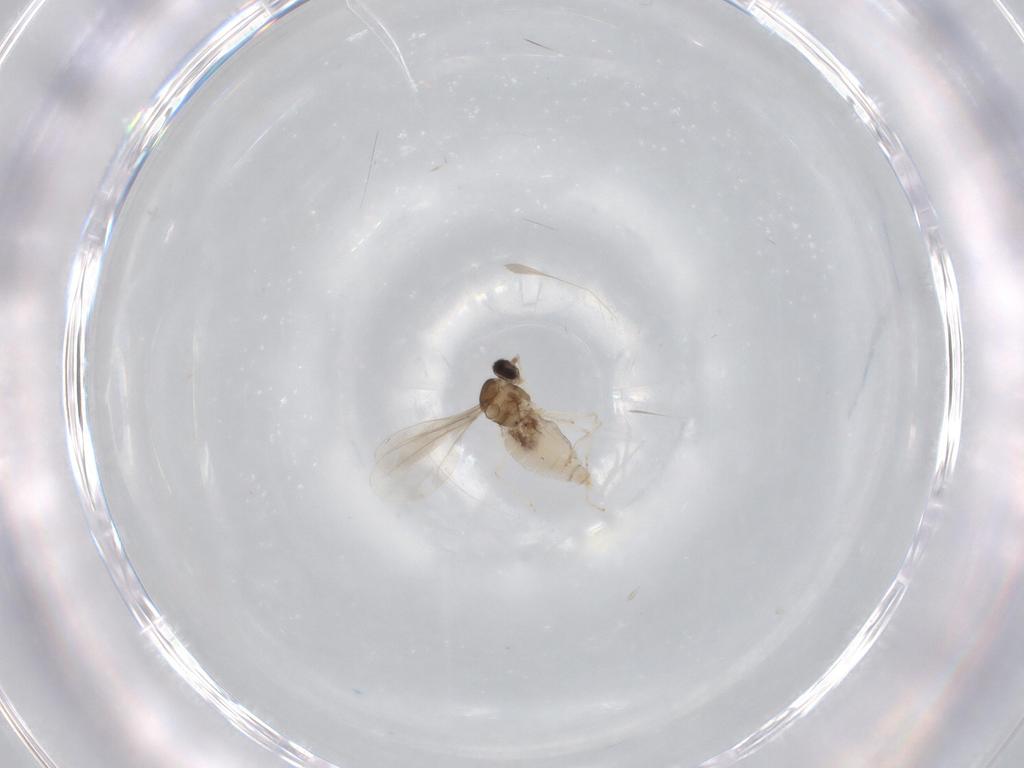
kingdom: Animalia
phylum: Arthropoda
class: Insecta
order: Diptera
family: Cecidomyiidae
